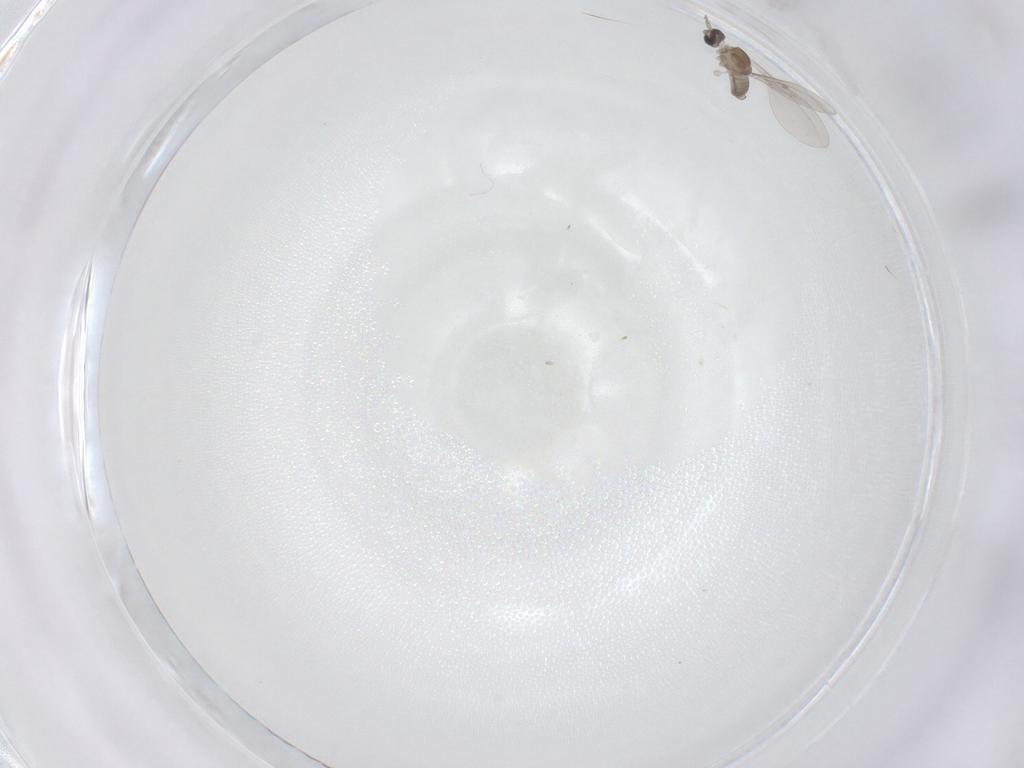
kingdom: Animalia
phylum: Arthropoda
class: Insecta
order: Diptera
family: Cecidomyiidae
